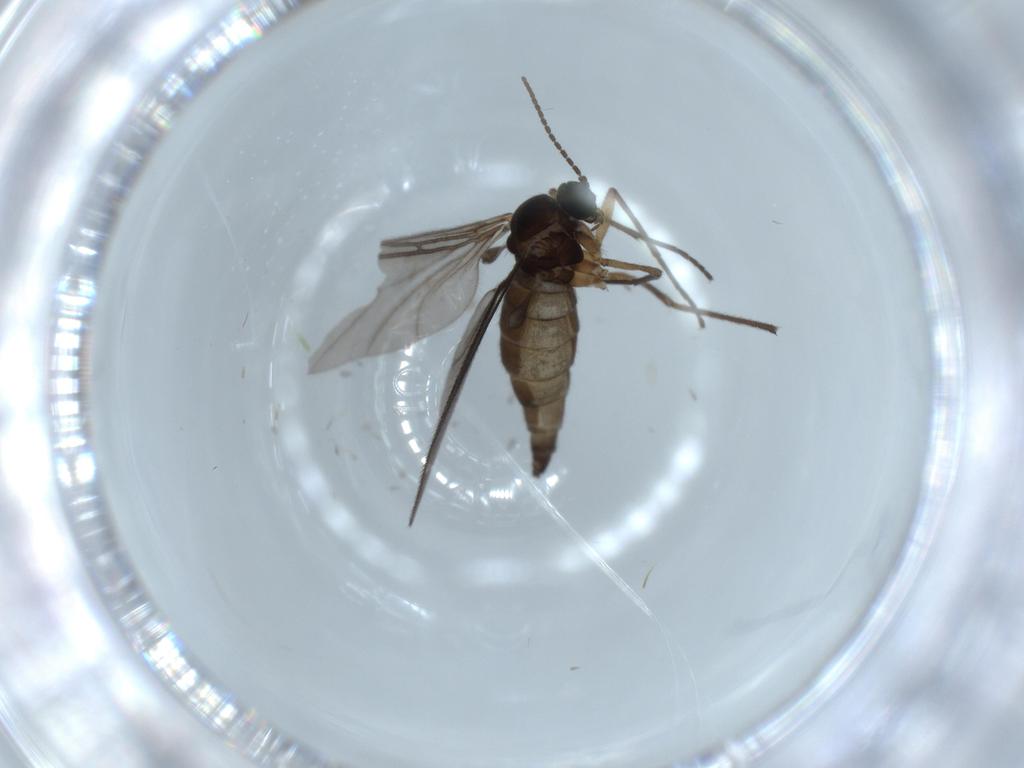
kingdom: Animalia
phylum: Arthropoda
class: Insecta
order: Diptera
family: Sciaridae
